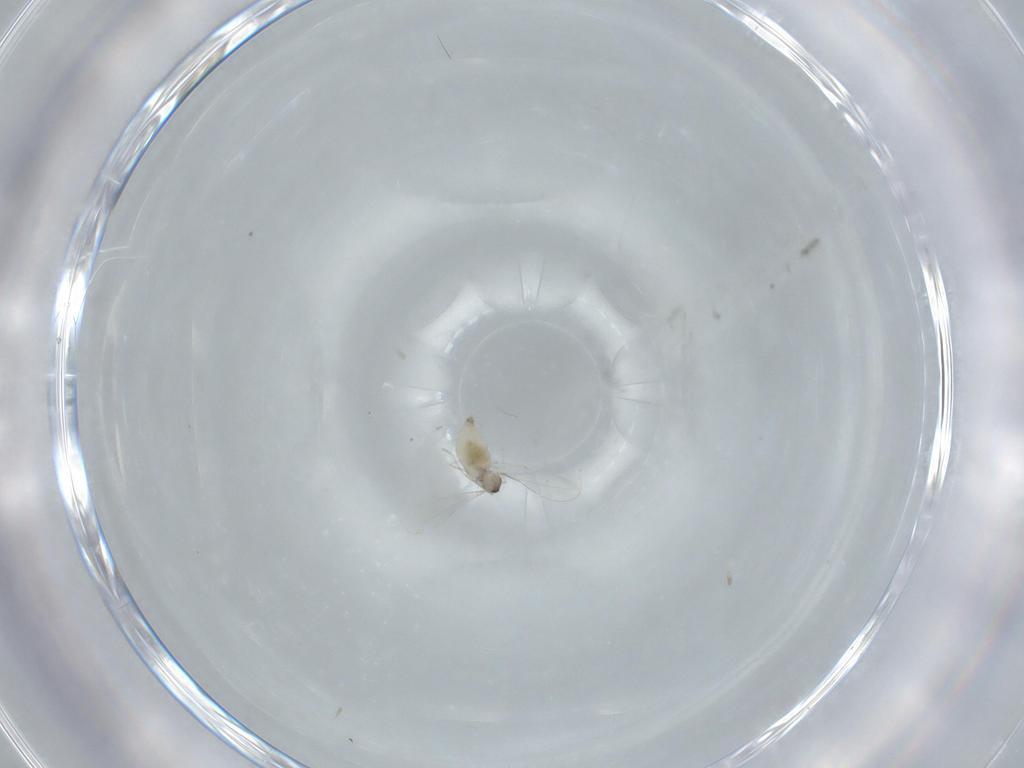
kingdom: Animalia
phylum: Arthropoda
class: Insecta
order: Diptera
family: Cecidomyiidae
